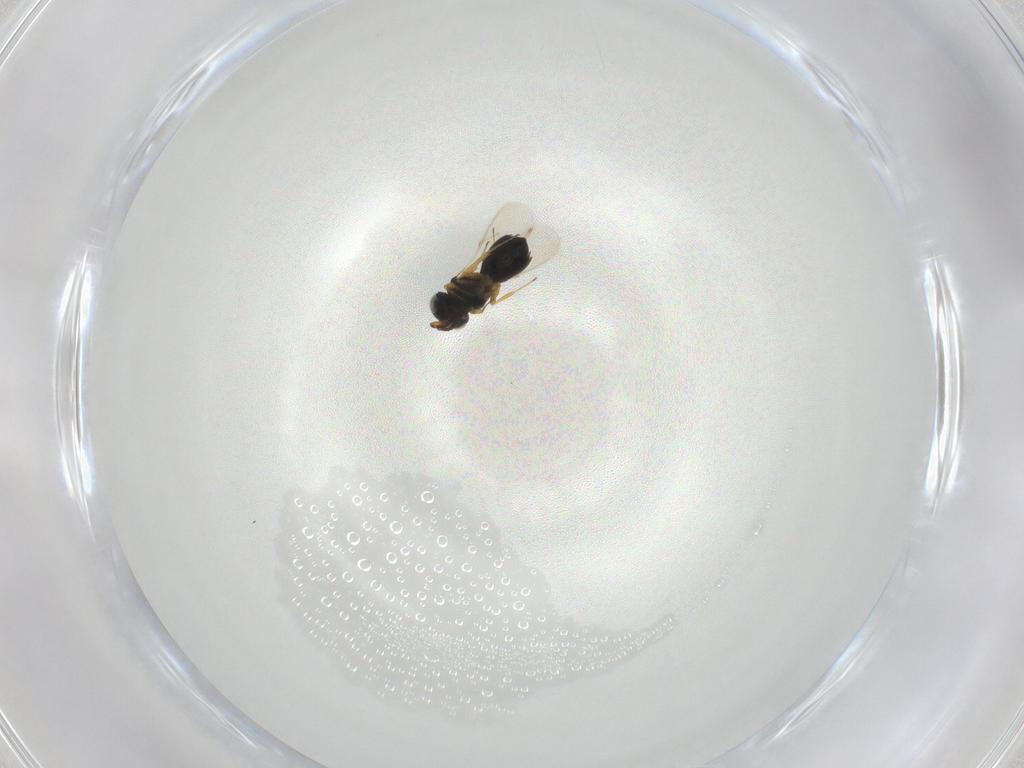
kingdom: Animalia
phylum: Arthropoda
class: Insecta
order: Hymenoptera
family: Scelionidae
